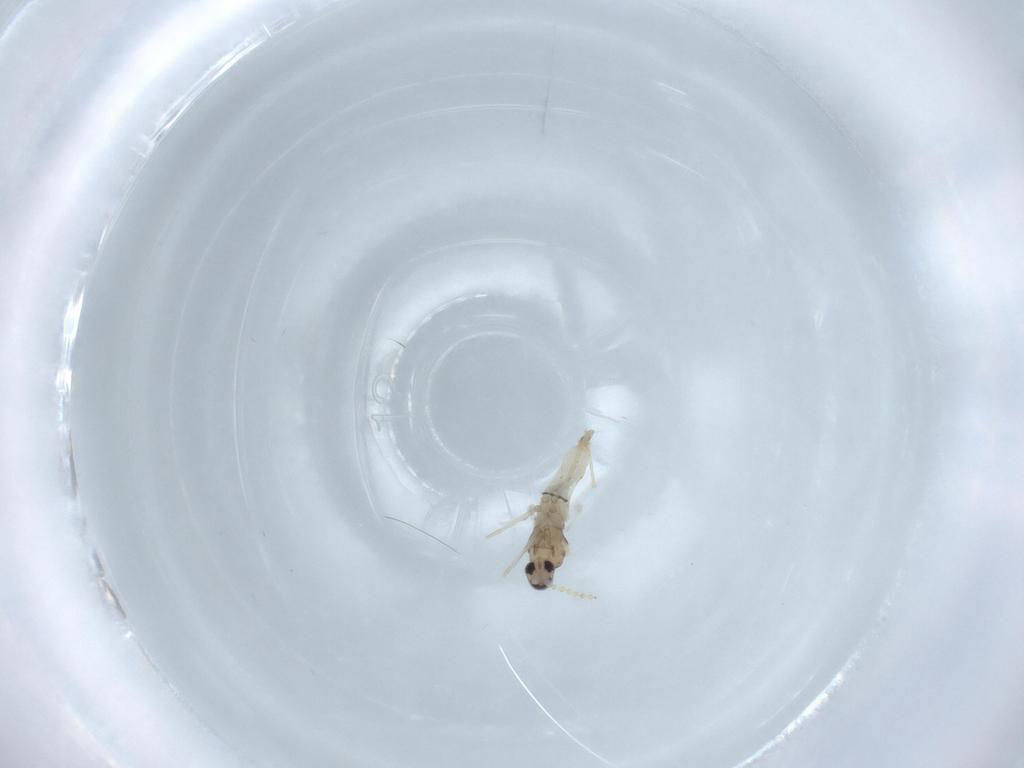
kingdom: Animalia
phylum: Arthropoda
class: Insecta
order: Diptera
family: Cecidomyiidae
